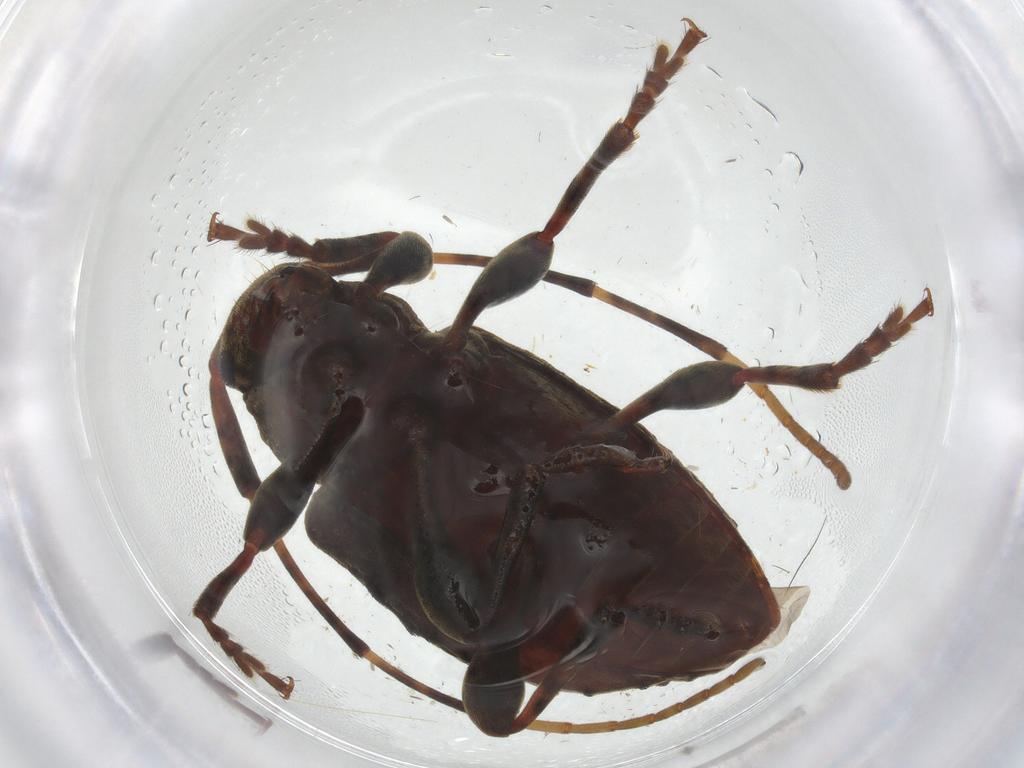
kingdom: Animalia
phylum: Arthropoda
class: Insecta
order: Coleoptera
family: Cerambycidae
